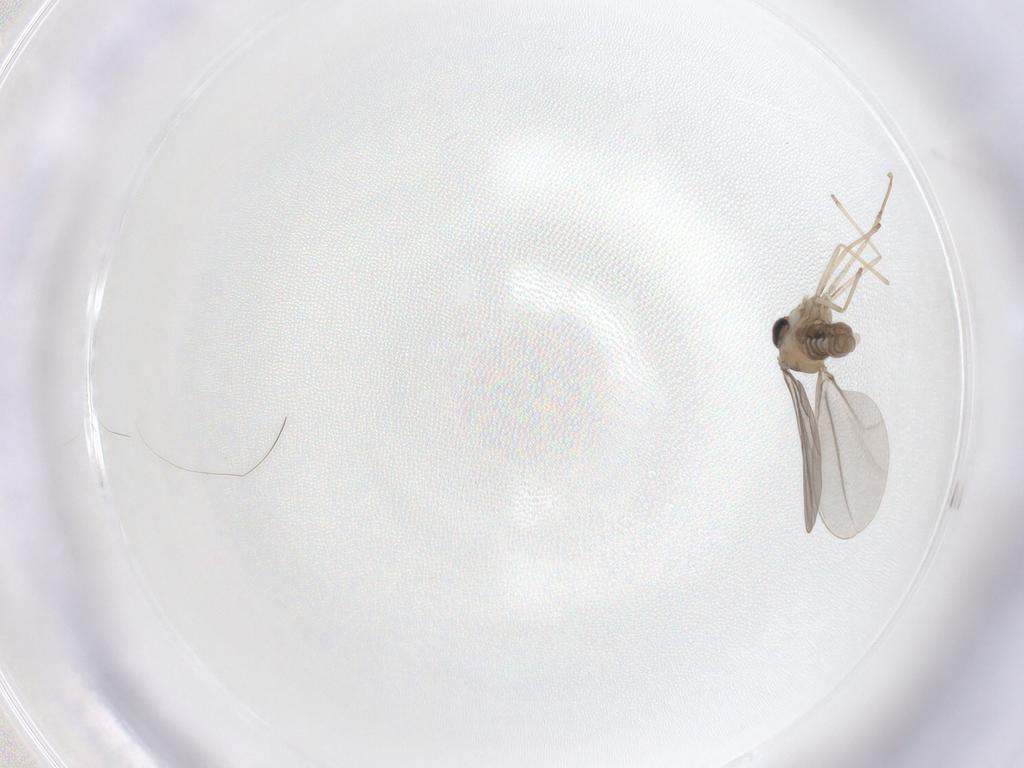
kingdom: Animalia
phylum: Arthropoda
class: Insecta
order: Diptera
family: Cecidomyiidae
